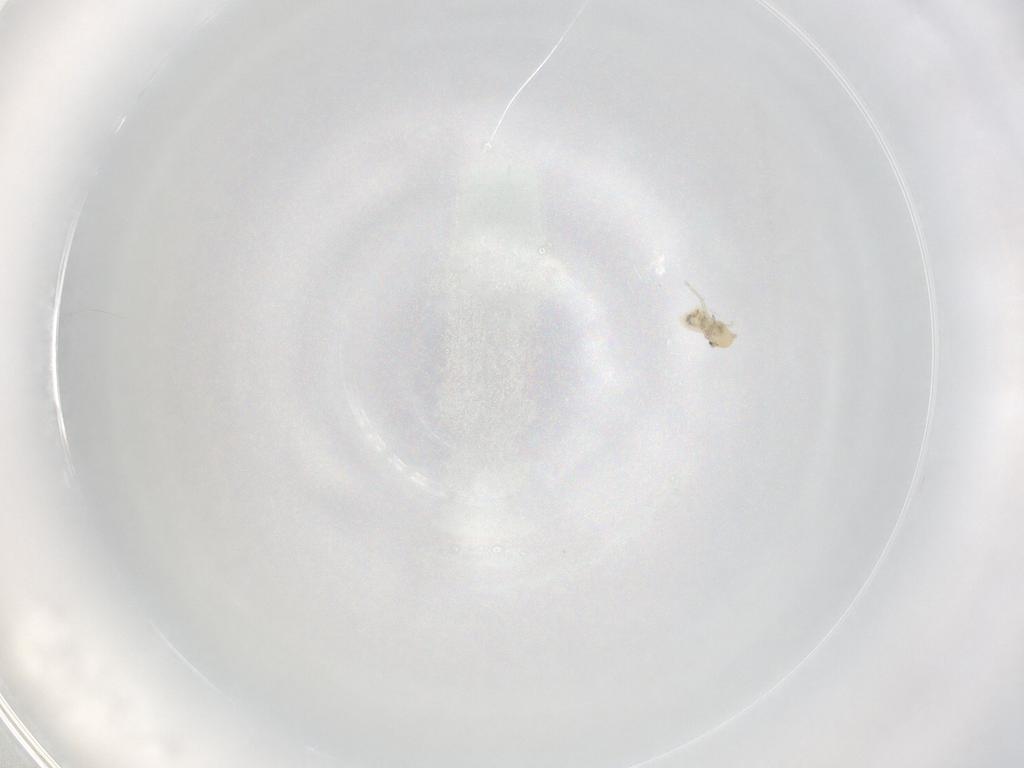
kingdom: Animalia
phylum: Arthropoda
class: Insecta
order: Psocodea
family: Caeciliusidae
